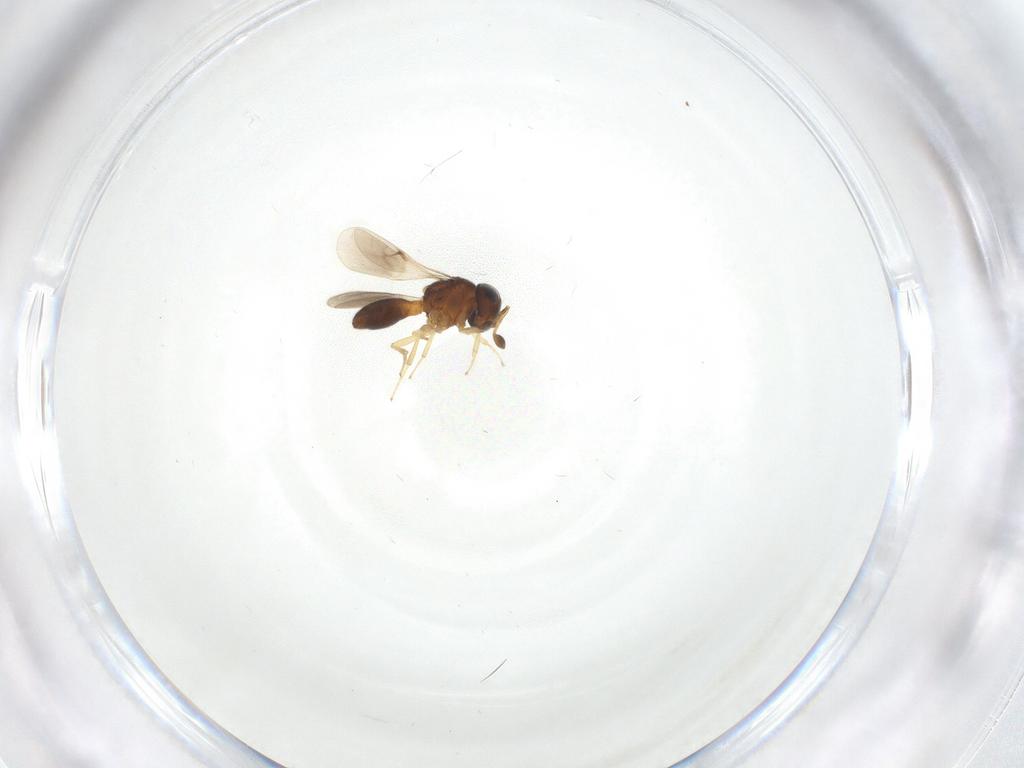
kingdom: Animalia
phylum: Arthropoda
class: Insecta
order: Hymenoptera
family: Scelionidae
